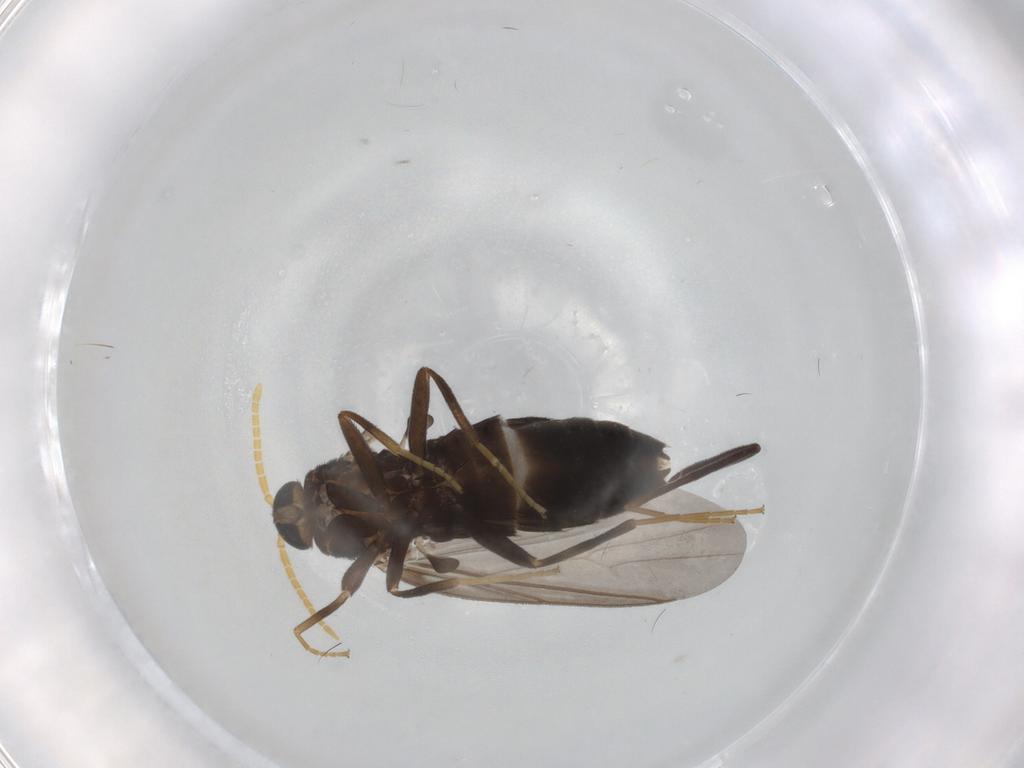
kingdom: Animalia
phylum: Arthropoda
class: Insecta
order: Diptera
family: Scatopsidae
